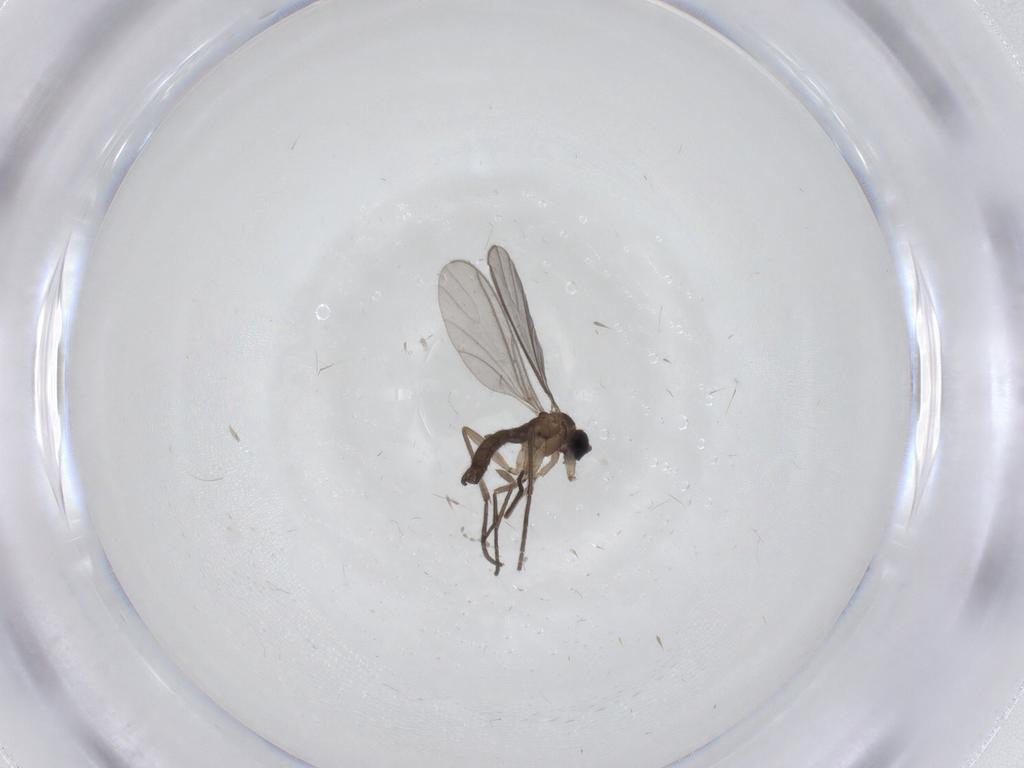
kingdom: Animalia
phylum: Arthropoda
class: Insecta
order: Diptera
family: Sciaridae
